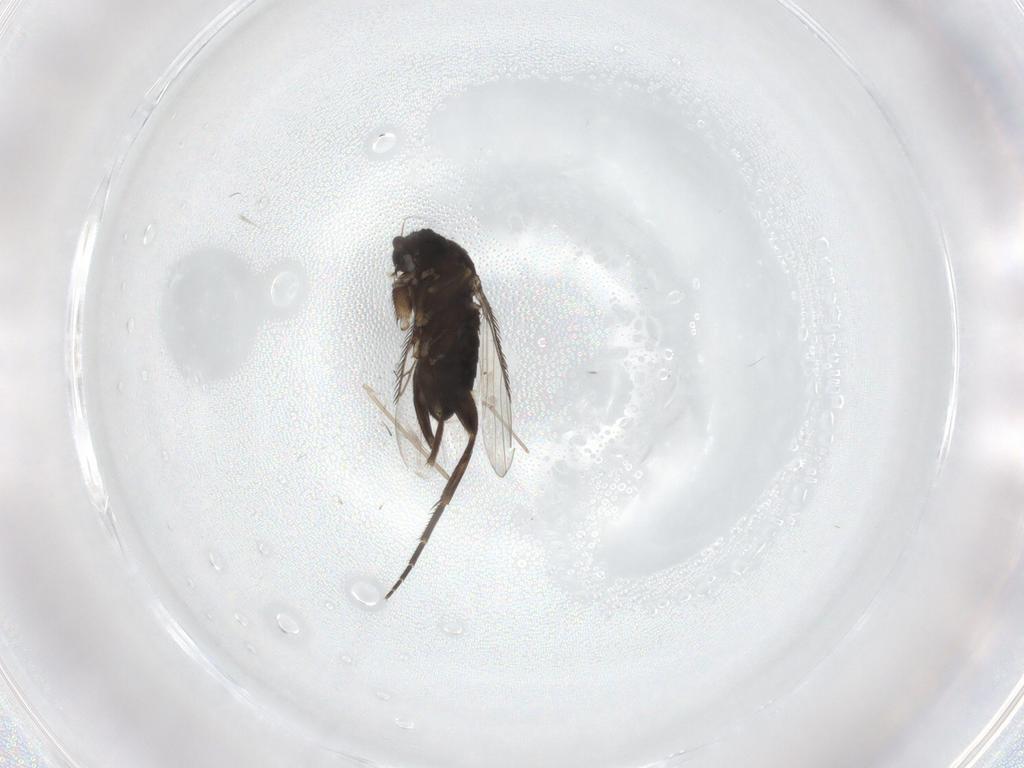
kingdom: Animalia
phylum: Arthropoda
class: Insecta
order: Diptera
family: Phoridae
